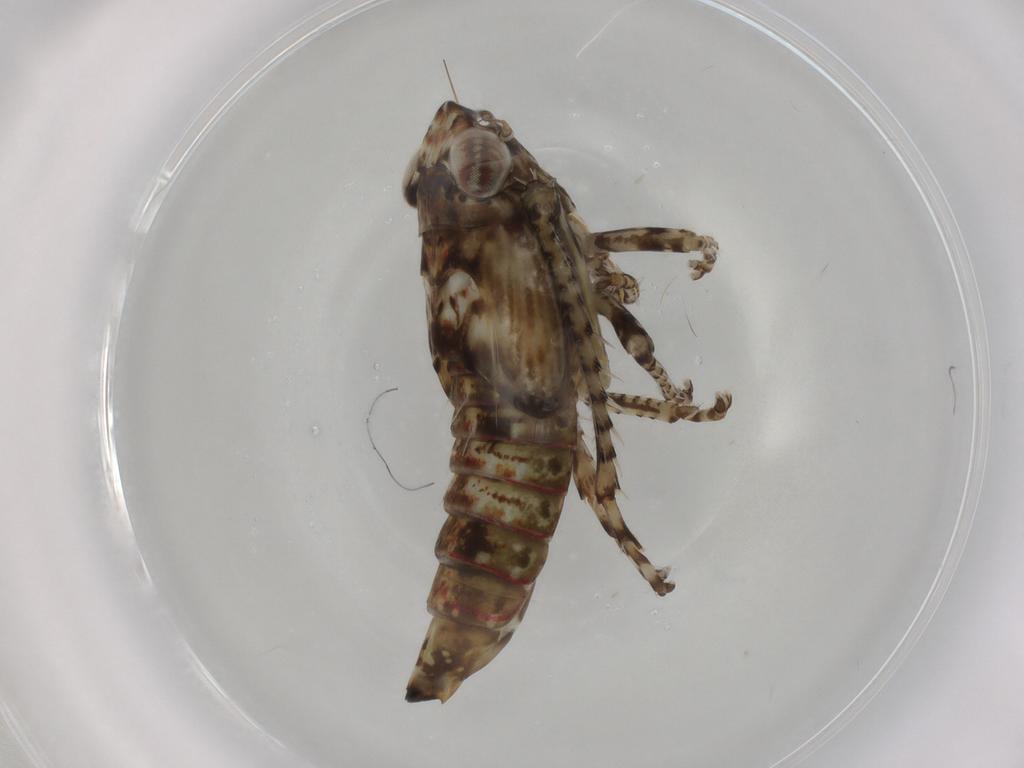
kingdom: Animalia
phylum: Arthropoda
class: Insecta
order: Hemiptera
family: Cicadellidae
